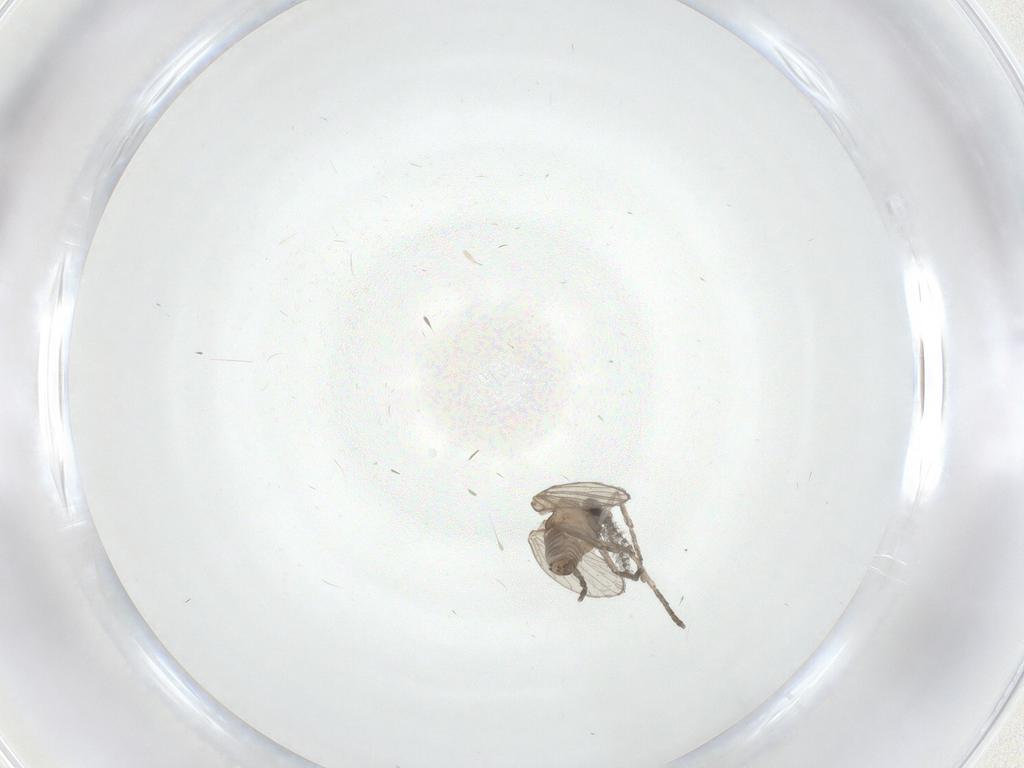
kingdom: Animalia
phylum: Arthropoda
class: Insecta
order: Diptera
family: Psychodidae
